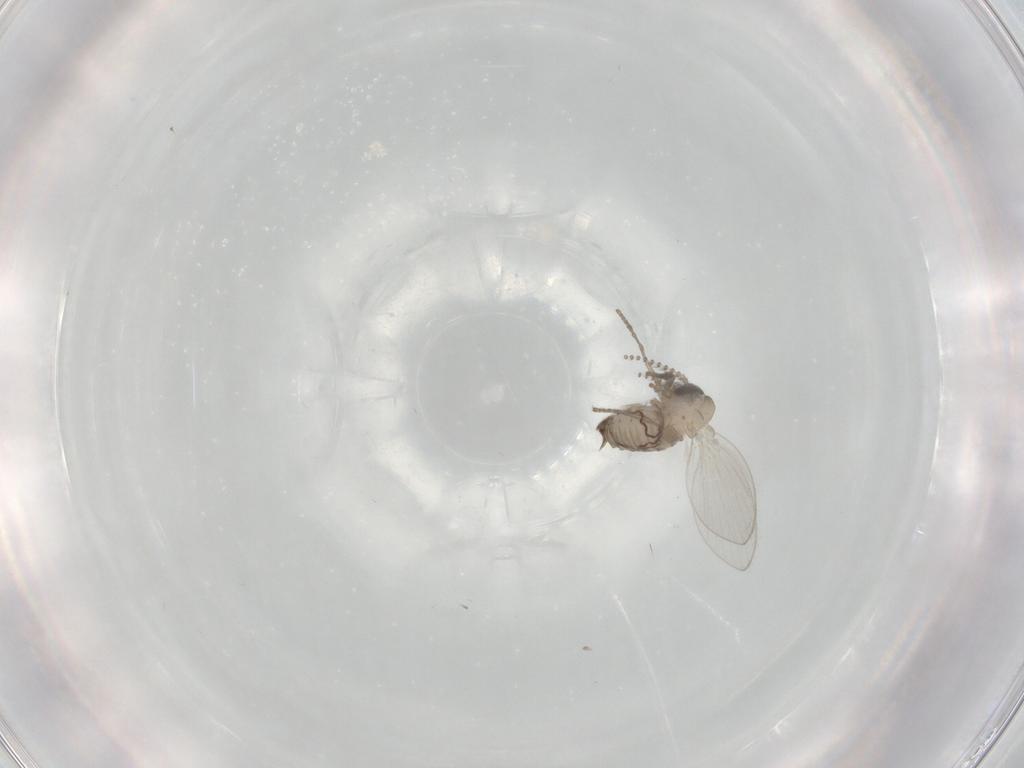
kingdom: Animalia
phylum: Arthropoda
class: Insecta
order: Diptera
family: Psychodidae
